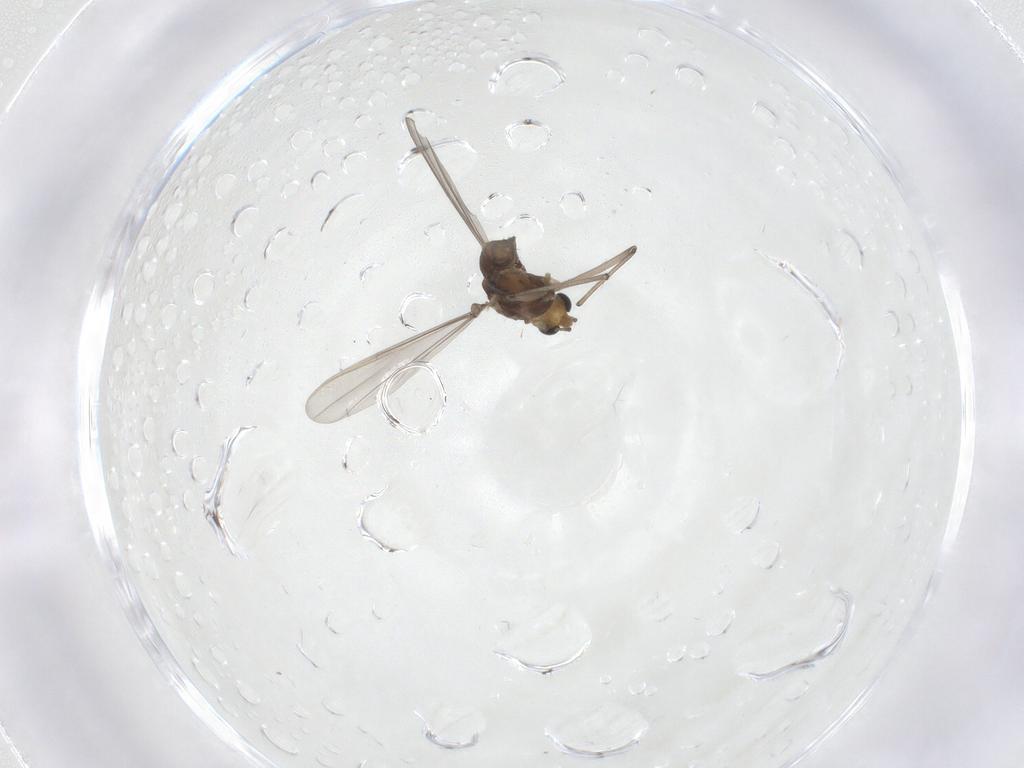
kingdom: Animalia
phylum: Arthropoda
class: Insecta
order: Diptera
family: Chironomidae
